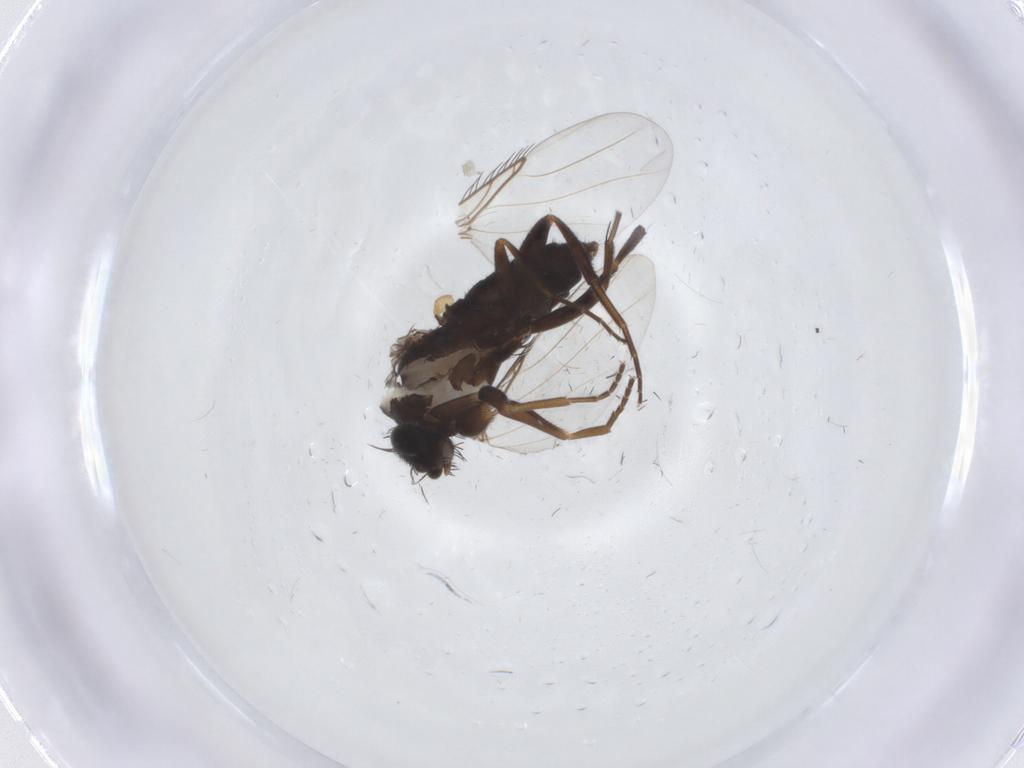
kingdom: Animalia
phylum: Arthropoda
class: Insecta
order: Diptera
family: Phoridae
